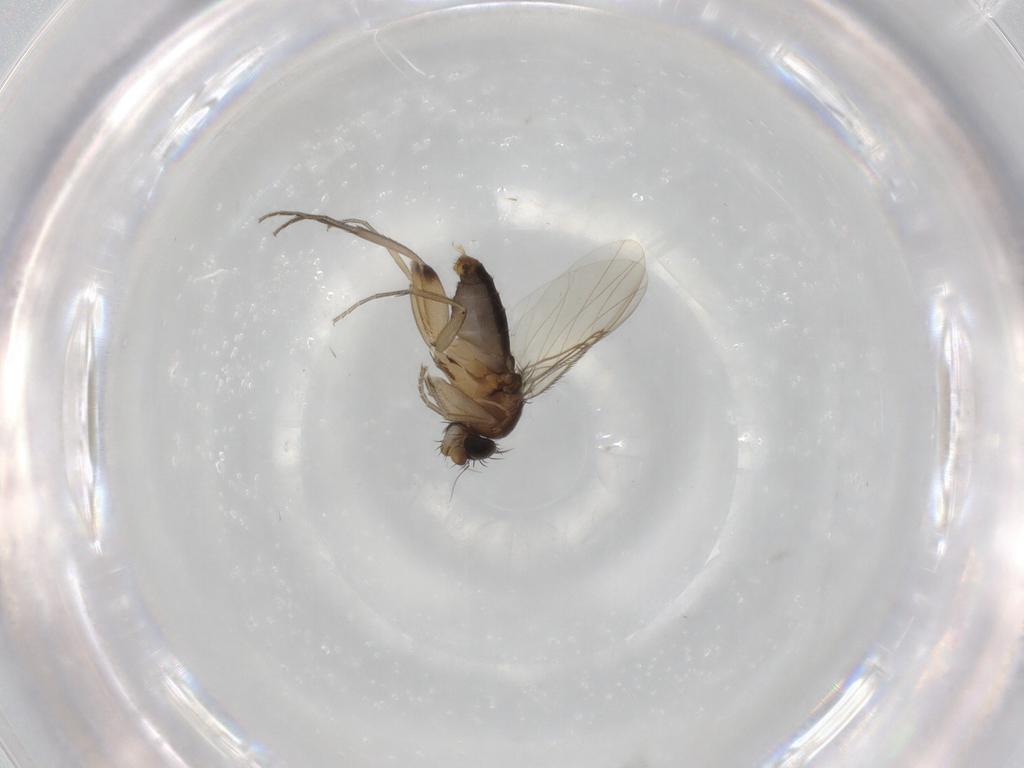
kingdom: Animalia
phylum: Arthropoda
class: Insecta
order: Diptera
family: Phoridae
